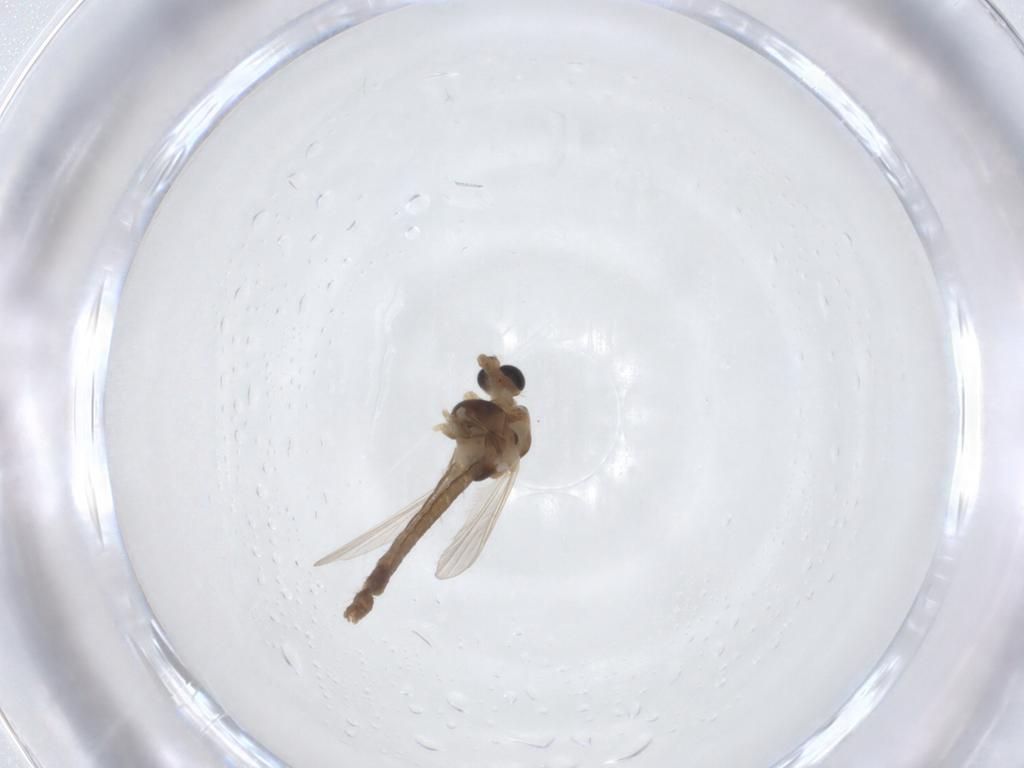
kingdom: Animalia
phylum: Arthropoda
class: Insecta
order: Diptera
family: Chironomidae
